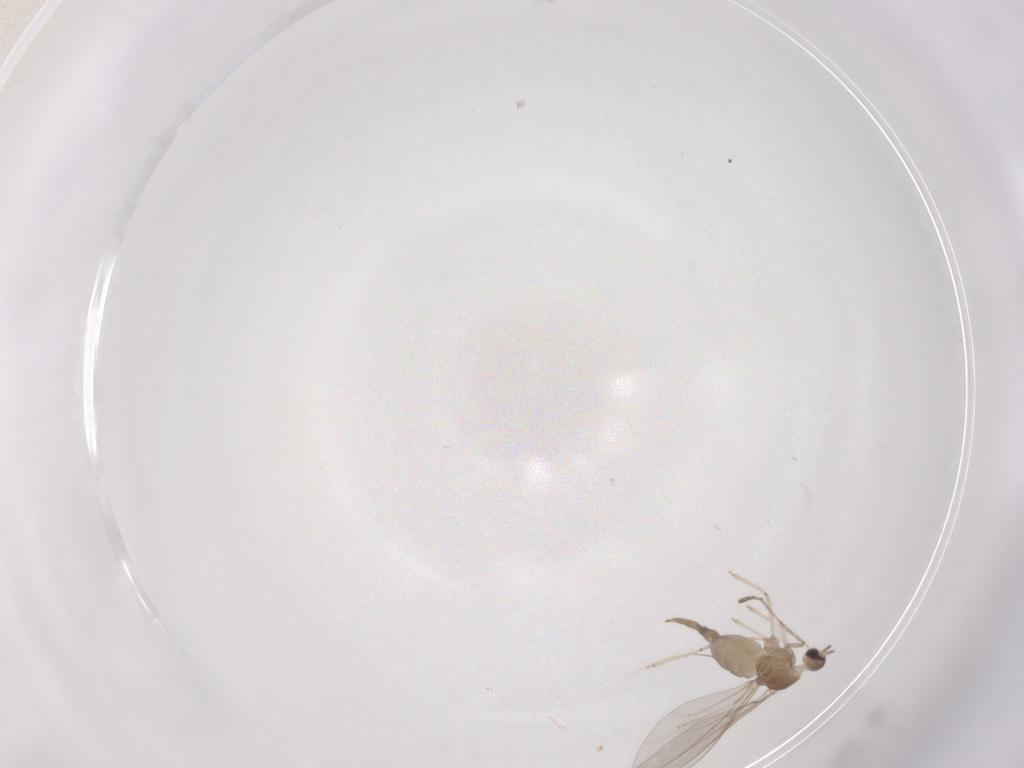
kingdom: Animalia
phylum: Arthropoda
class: Insecta
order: Diptera
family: Cecidomyiidae
